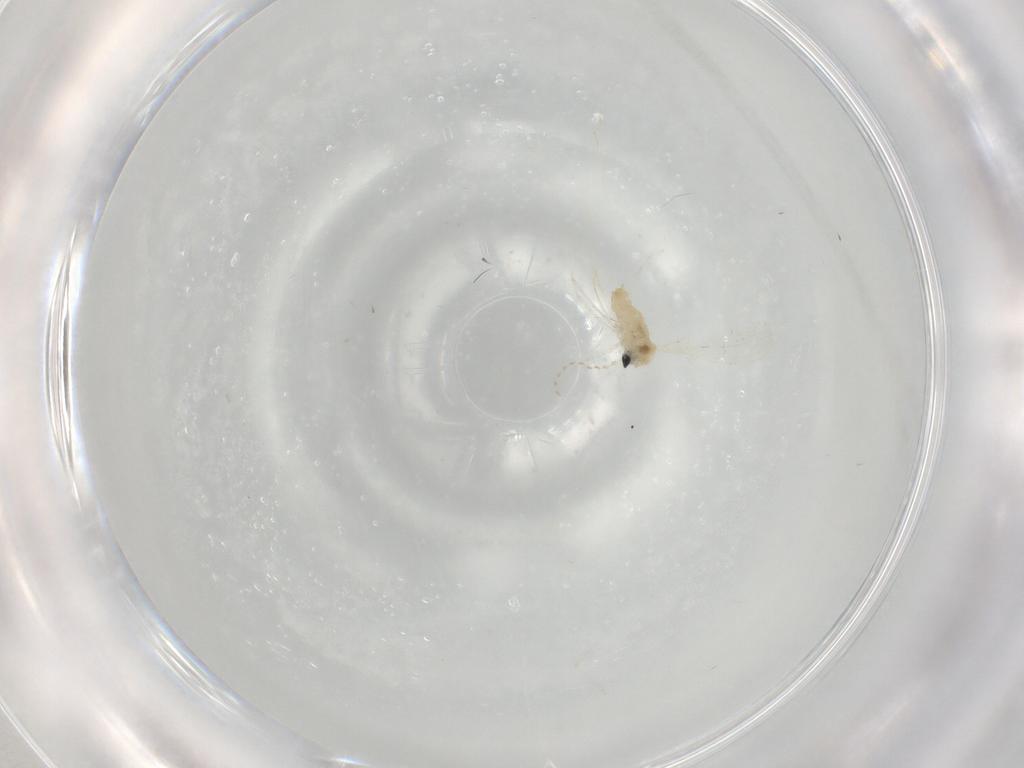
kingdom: Animalia
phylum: Arthropoda
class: Insecta
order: Diptera
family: Cecidomyiidae
